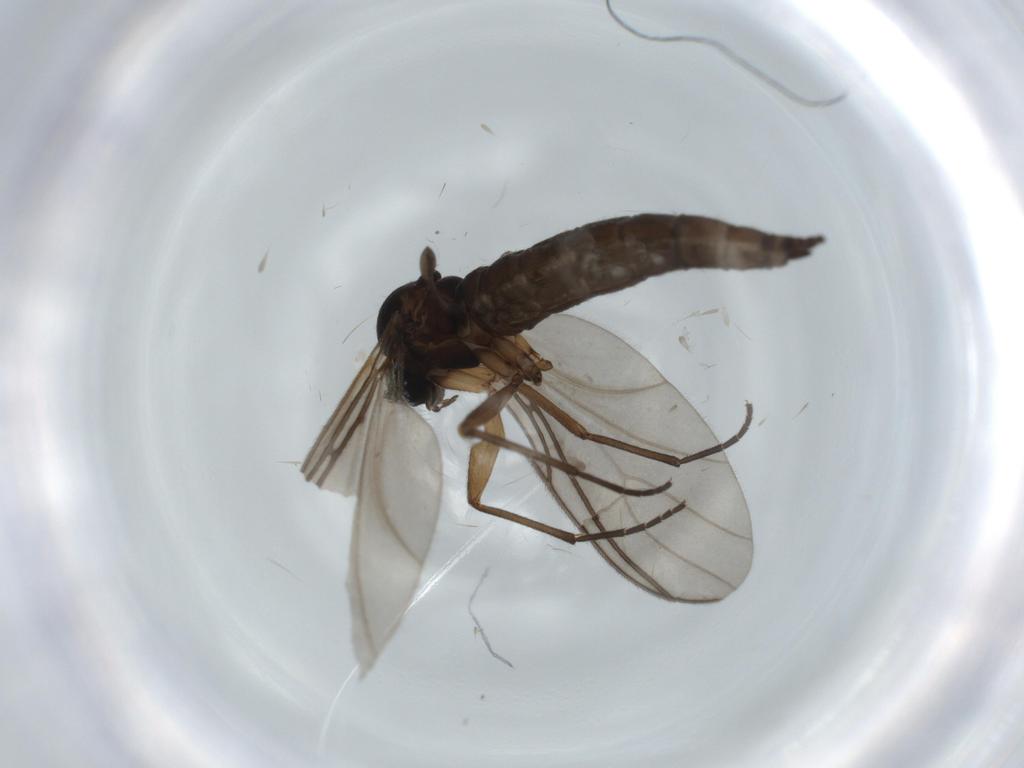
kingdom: Animalia
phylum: Arthropoda
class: Insecta
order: Diptera
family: Sciaridae
